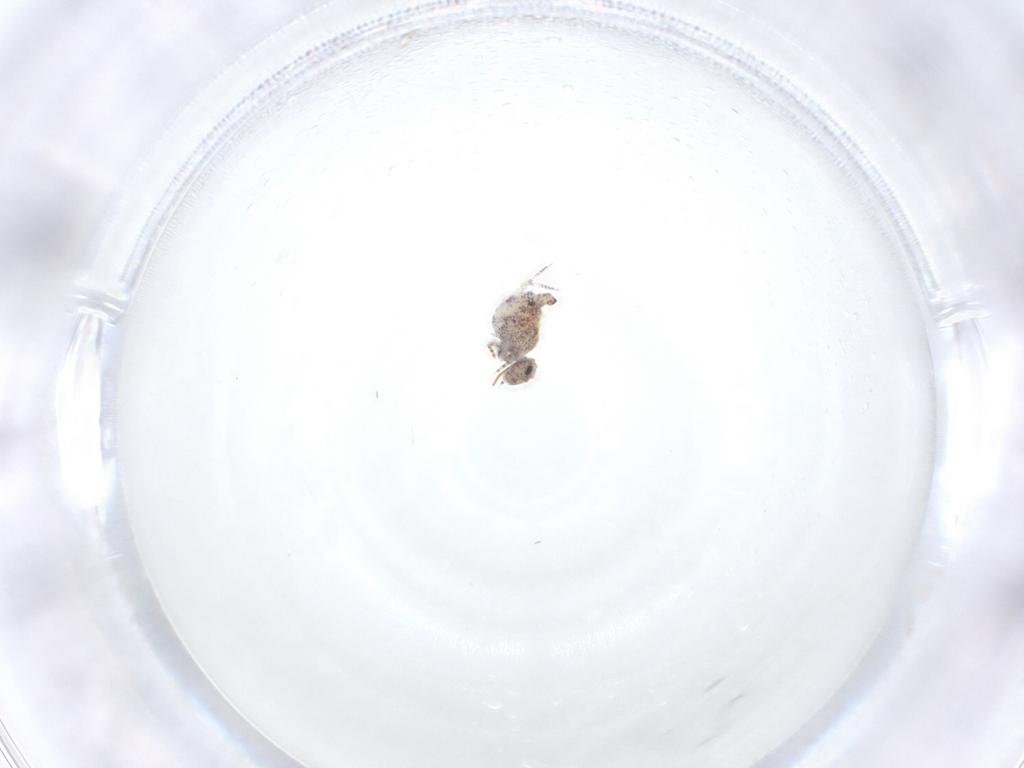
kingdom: Animalia
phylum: Arthropoda
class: Collembola
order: Symphypleona
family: Bourletiellidae
